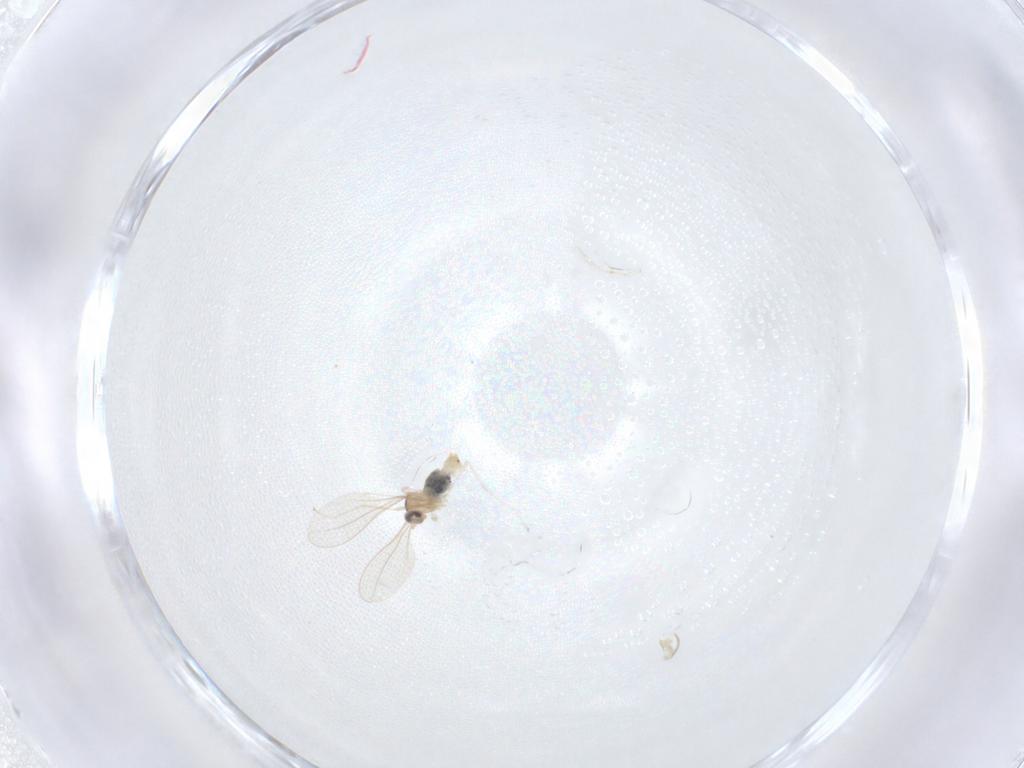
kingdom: Animalia
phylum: Arthropoda
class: Insecta
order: Diptera
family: Cecidomyiidae
